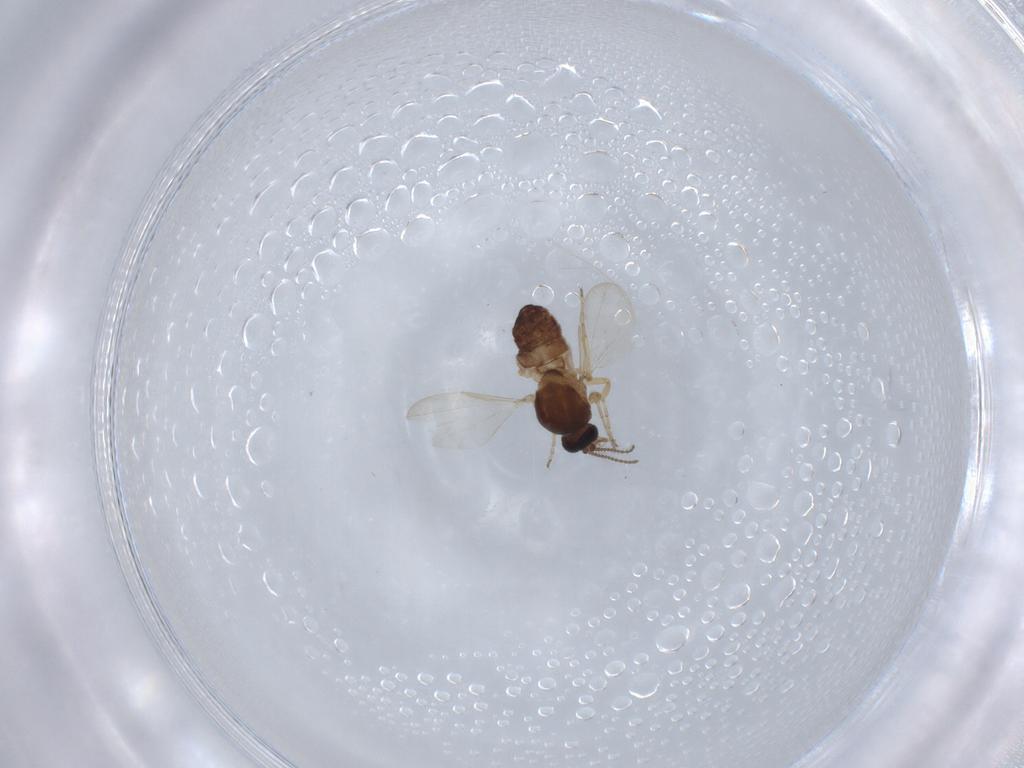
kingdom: Animalia
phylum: Arthropoda
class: Insecta
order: Diptera
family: Ceratopogonidae
